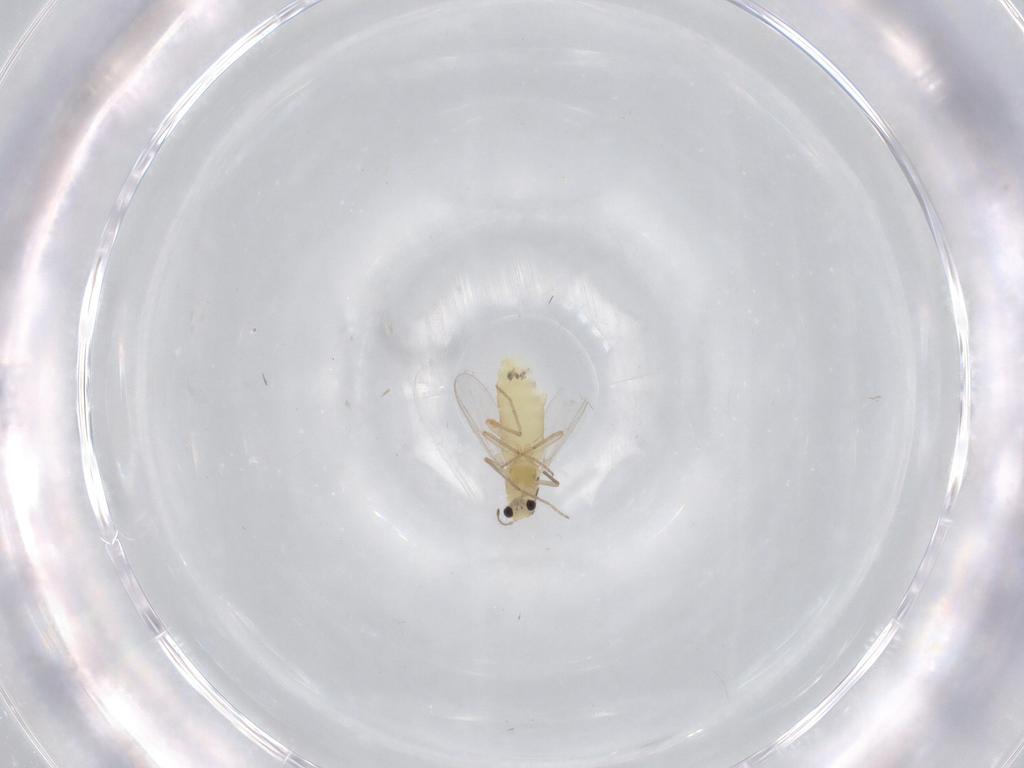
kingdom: Animalia
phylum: Arthropoda
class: Insecta
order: Diptera
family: Chironomidae
